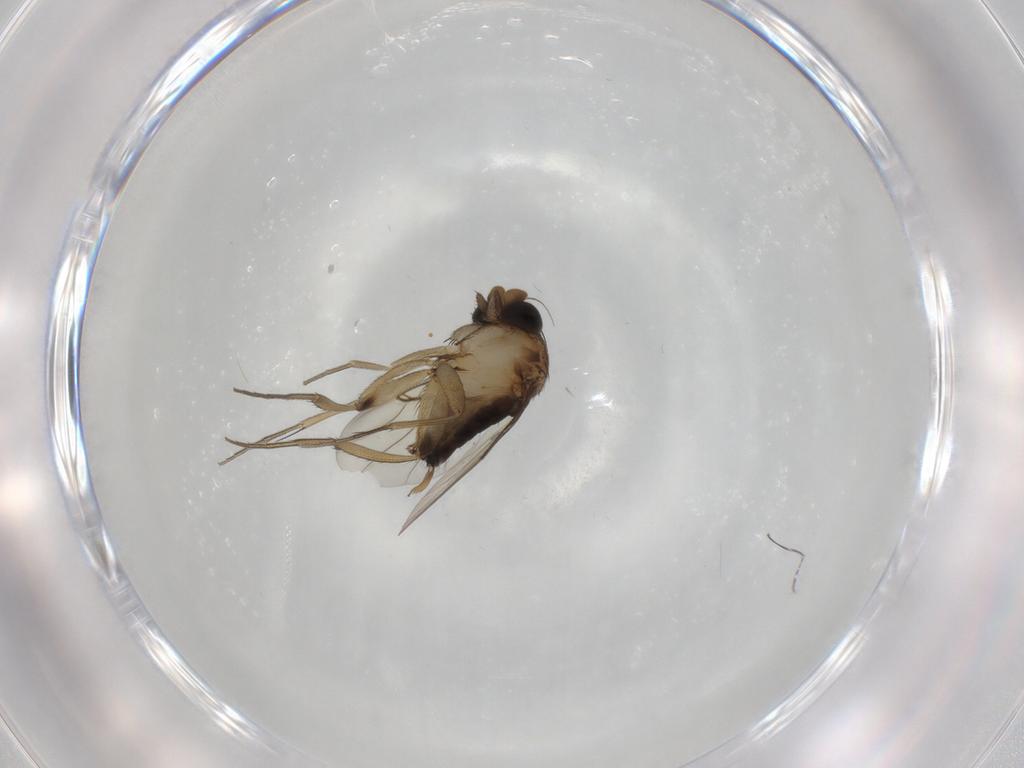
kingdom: Animalia
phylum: Arthropoda
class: Insecta
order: Diptera
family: Phoridae
